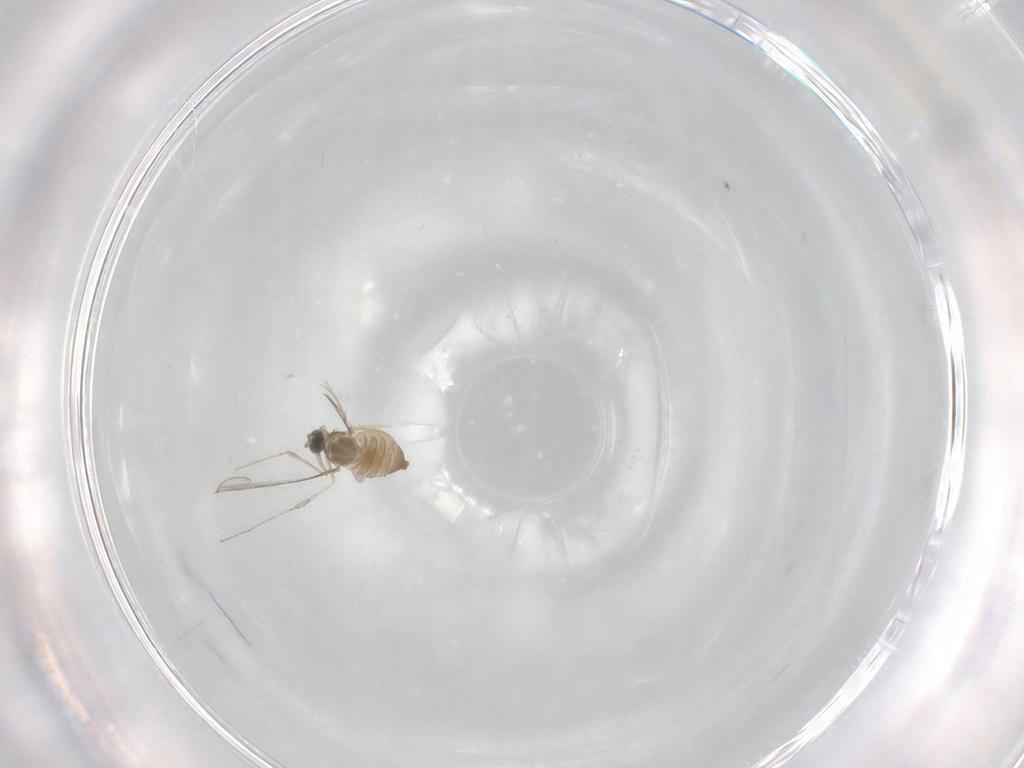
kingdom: Animalia
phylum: Arthropoda
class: Insecta
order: Diptera
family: Cecidomyiidae
